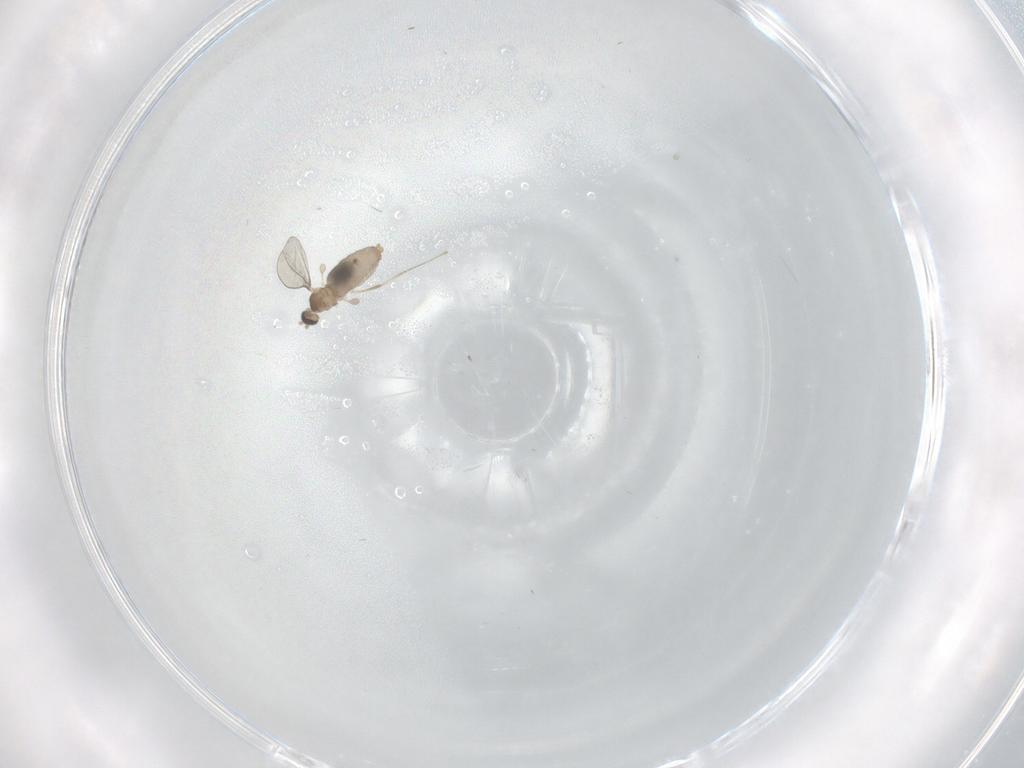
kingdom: Animalia
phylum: Arthropoda
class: Insecta
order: Diptera
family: Cecidomyiidae
